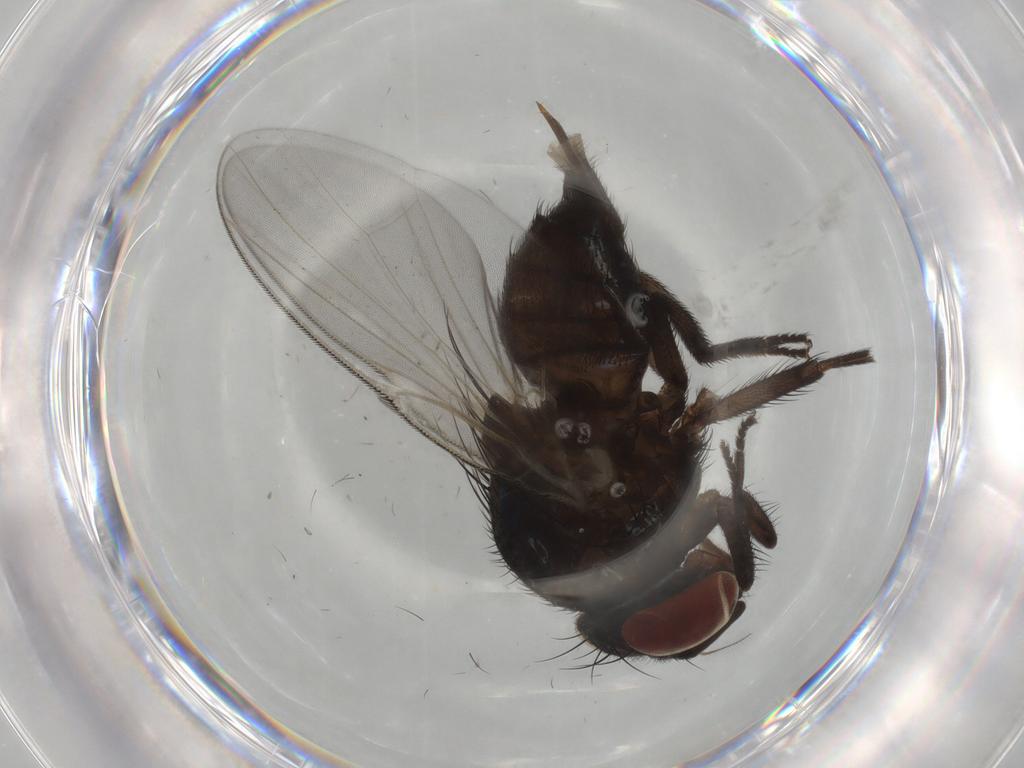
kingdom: Animalia
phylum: Arthropoda
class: Insecta
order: Diptera
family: Lonchaeidae
